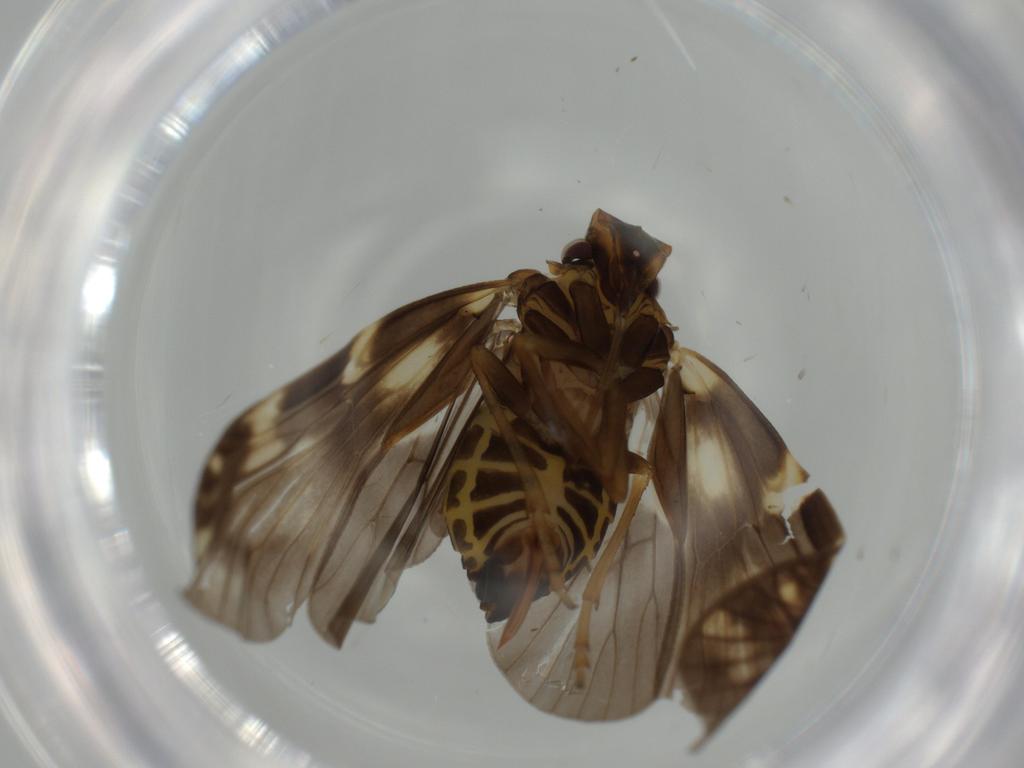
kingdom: Animalia
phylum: Arthropoda
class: Insecta
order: Hemiptera
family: Cixiidae
